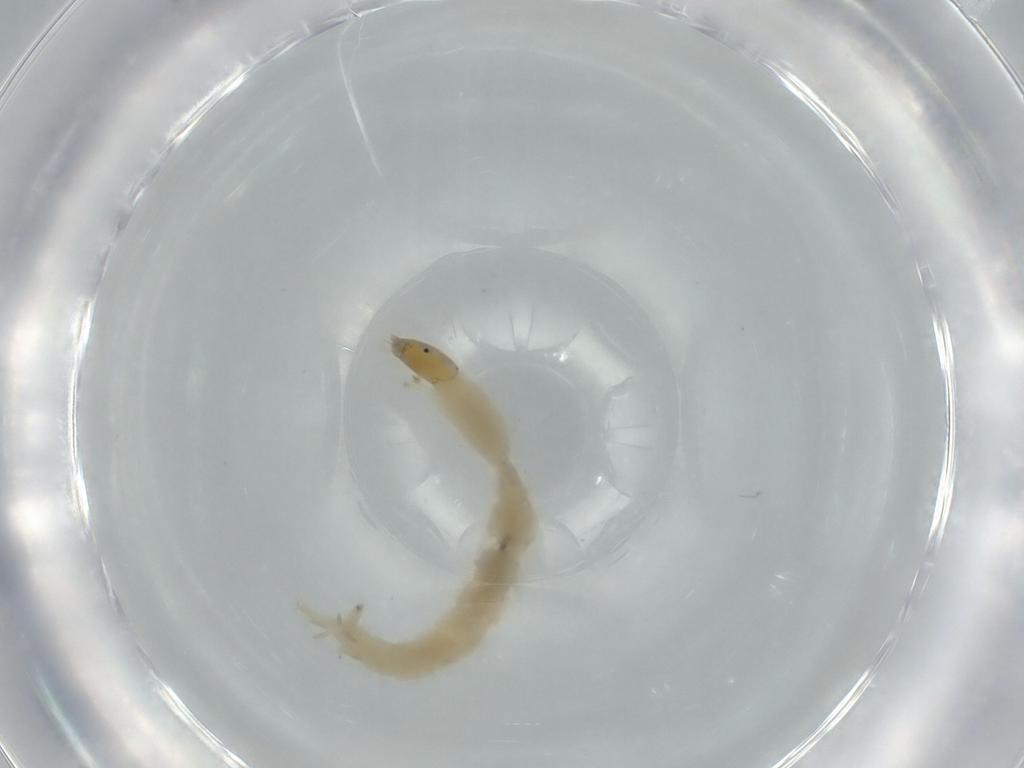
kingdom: Animalia
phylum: Arthropoda
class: Insecta
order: Diptera
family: Chironomidae
